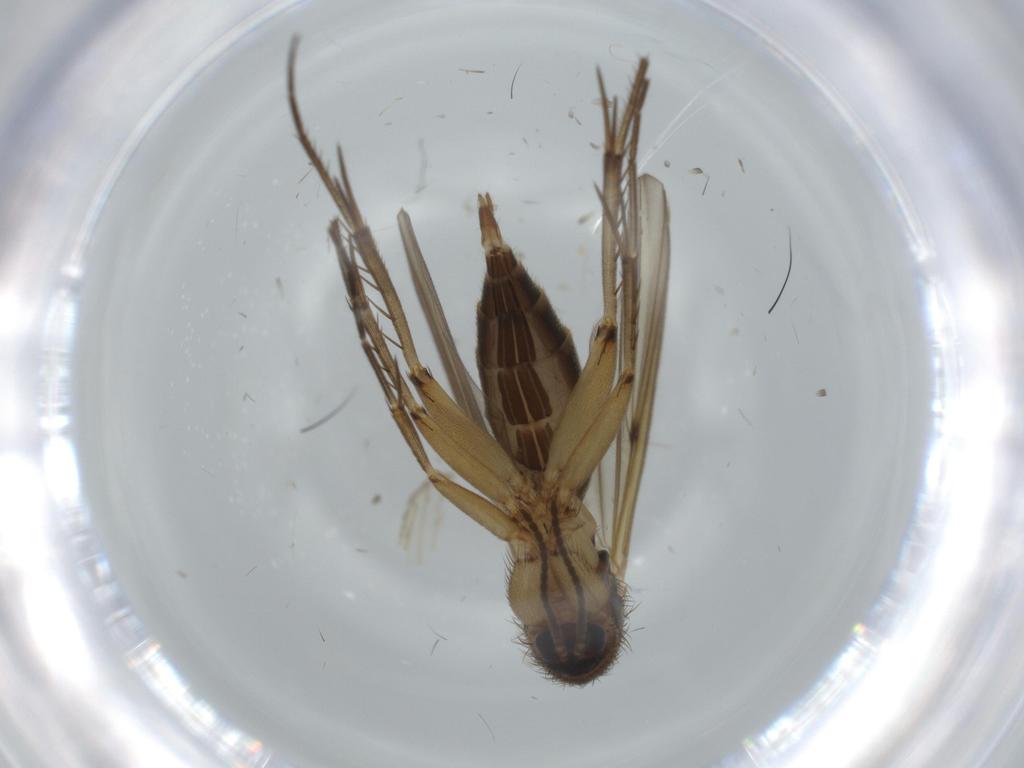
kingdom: Animalia
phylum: Arthropoda
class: Insecta
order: Diptera
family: Mycetophilidae
